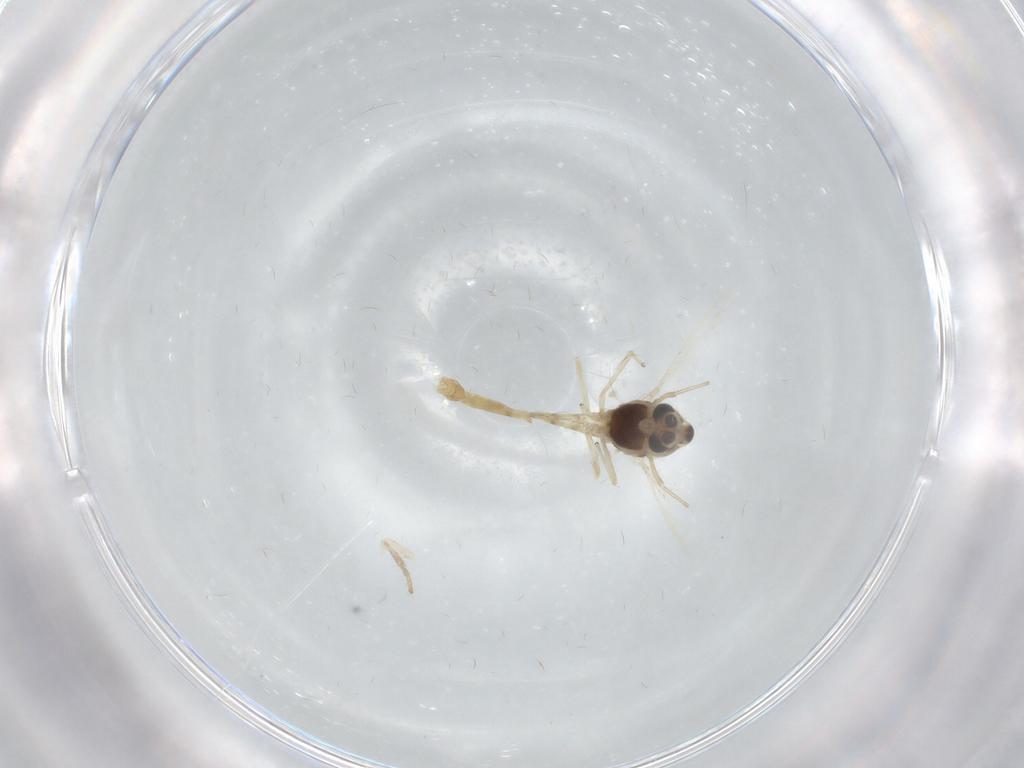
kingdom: Animalia
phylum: Arthropoda
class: Insecta
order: Diptera
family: Chironomidae
